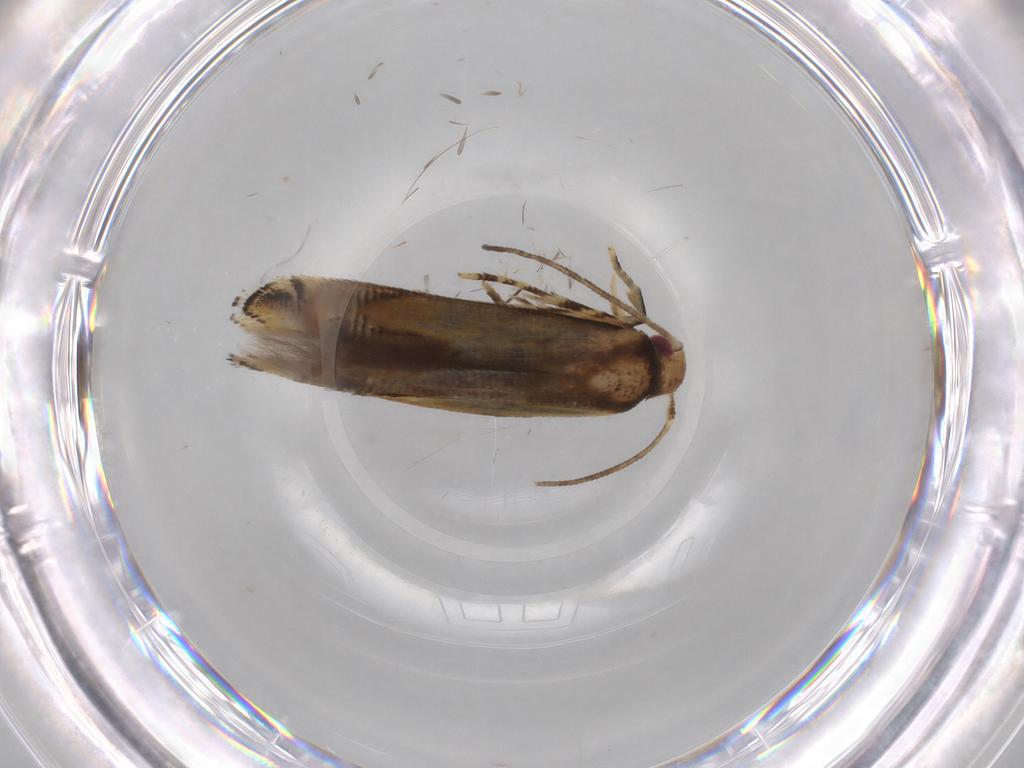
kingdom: Animalia
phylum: Arthropoda
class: Insecta
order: Lepidoptera
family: Momphidae
